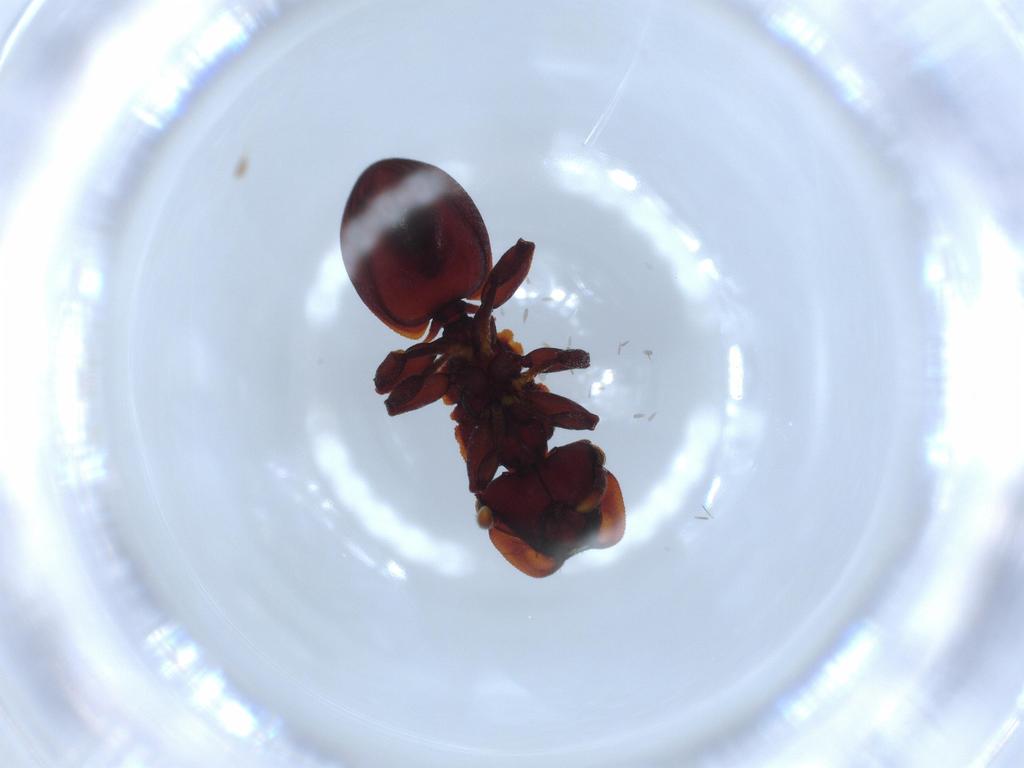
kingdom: Animalia
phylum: Arthropoda
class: Insecta
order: Hymenoptera
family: Formicidae
